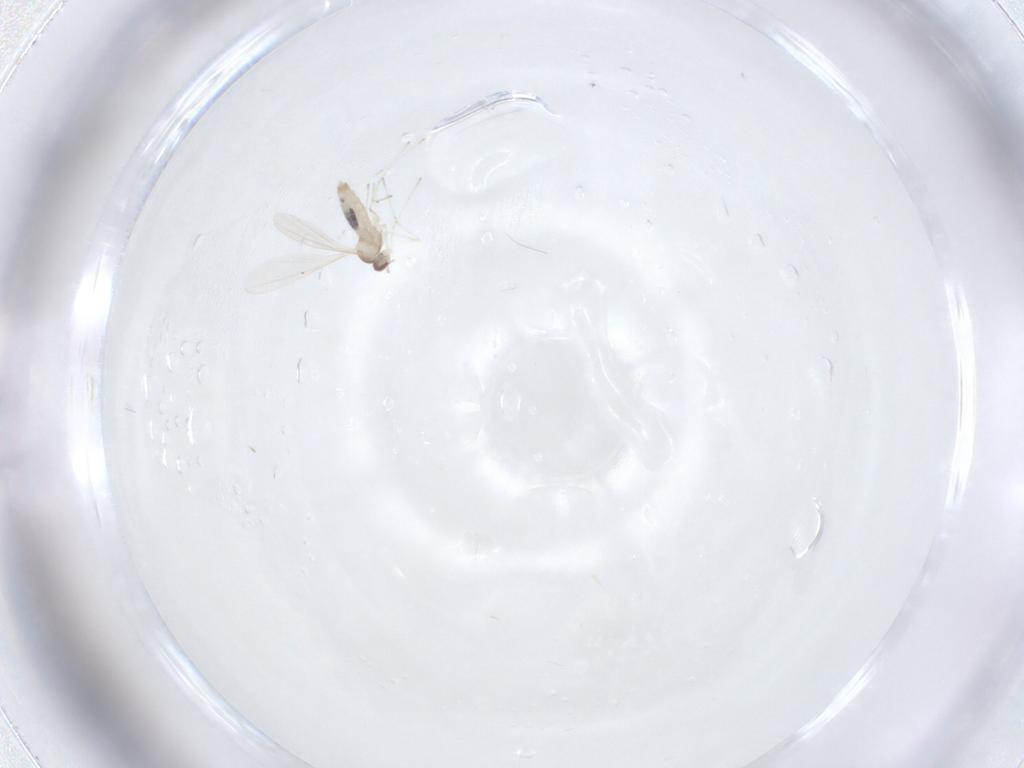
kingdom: Animalia
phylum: Arthropoda
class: Insecta
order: Diptera
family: Cecidomyiidae
